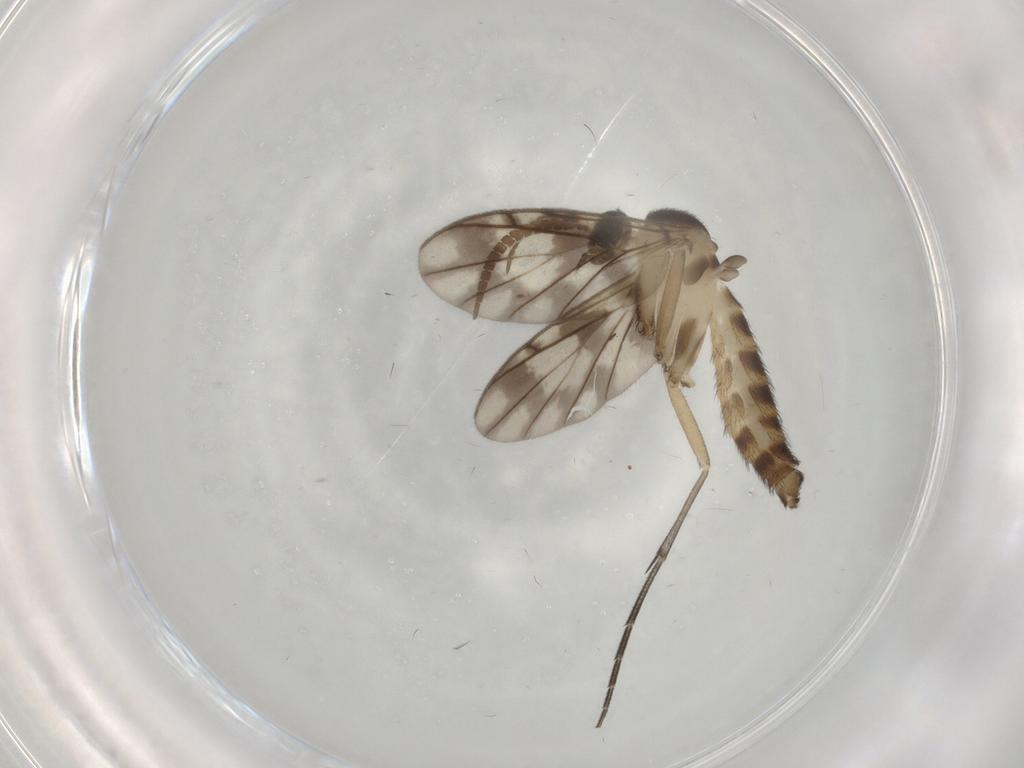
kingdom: Animalia
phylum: Arthropoda
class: Insecta
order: Diptera
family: Tabanidae
